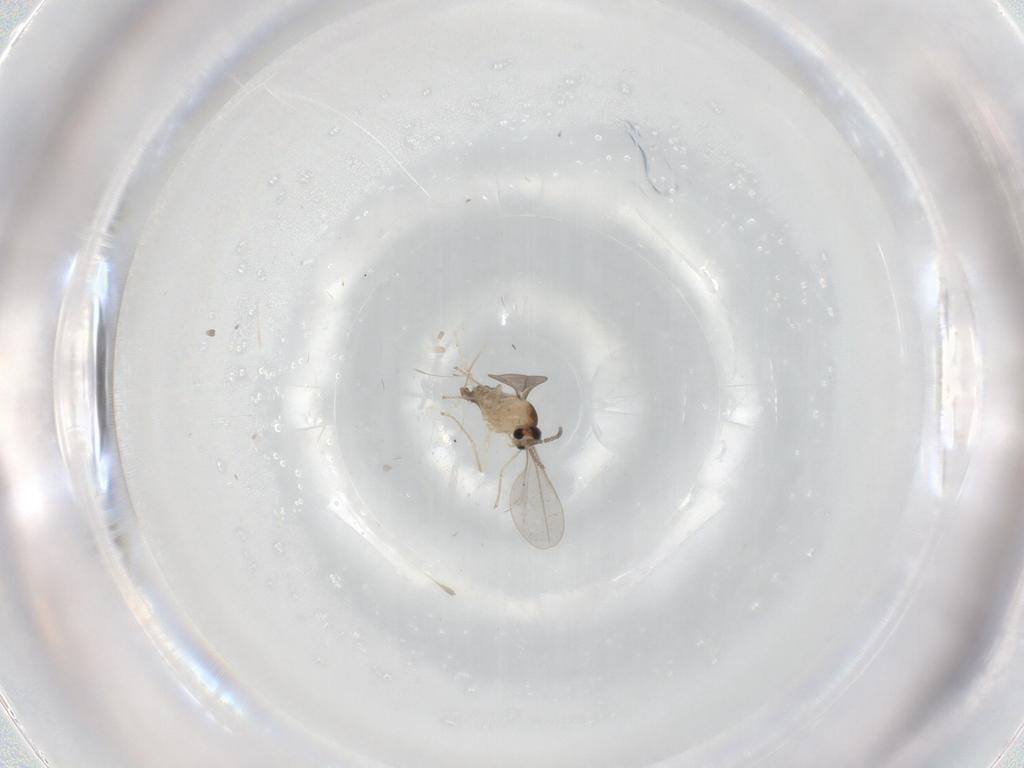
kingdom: Animalia
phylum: Arthropoda
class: Insecta
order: Diptera
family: Cecidomyiidae
